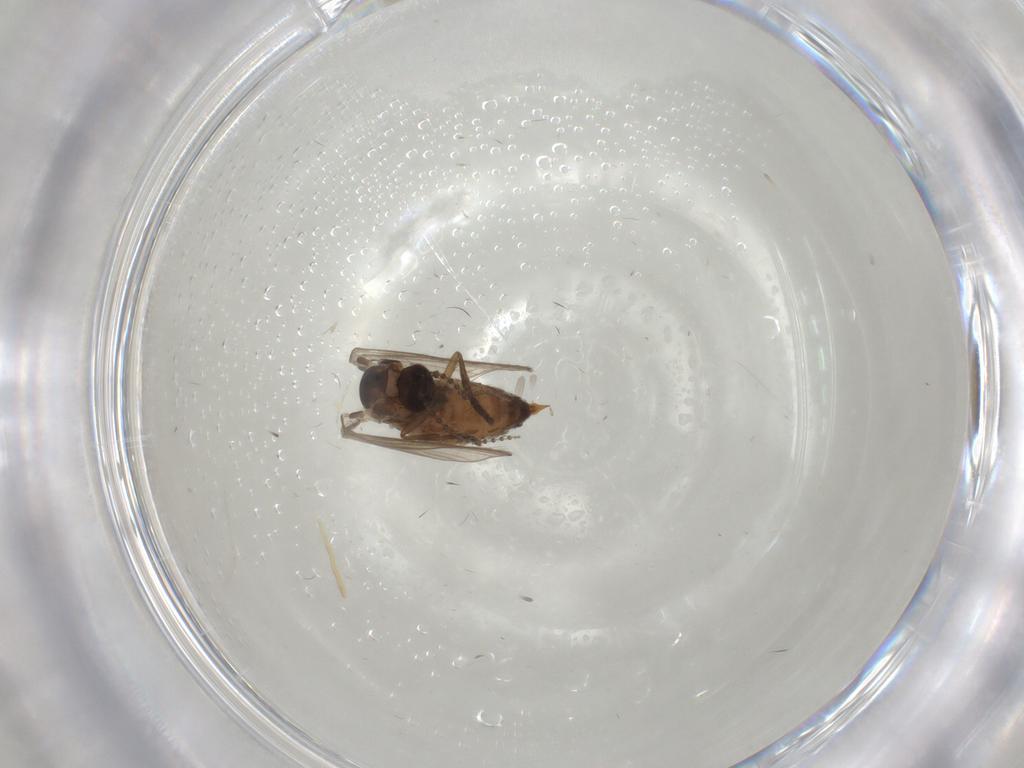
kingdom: Animalia
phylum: Arthropoda
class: Insecta
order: Diptera
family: Psychodidae
